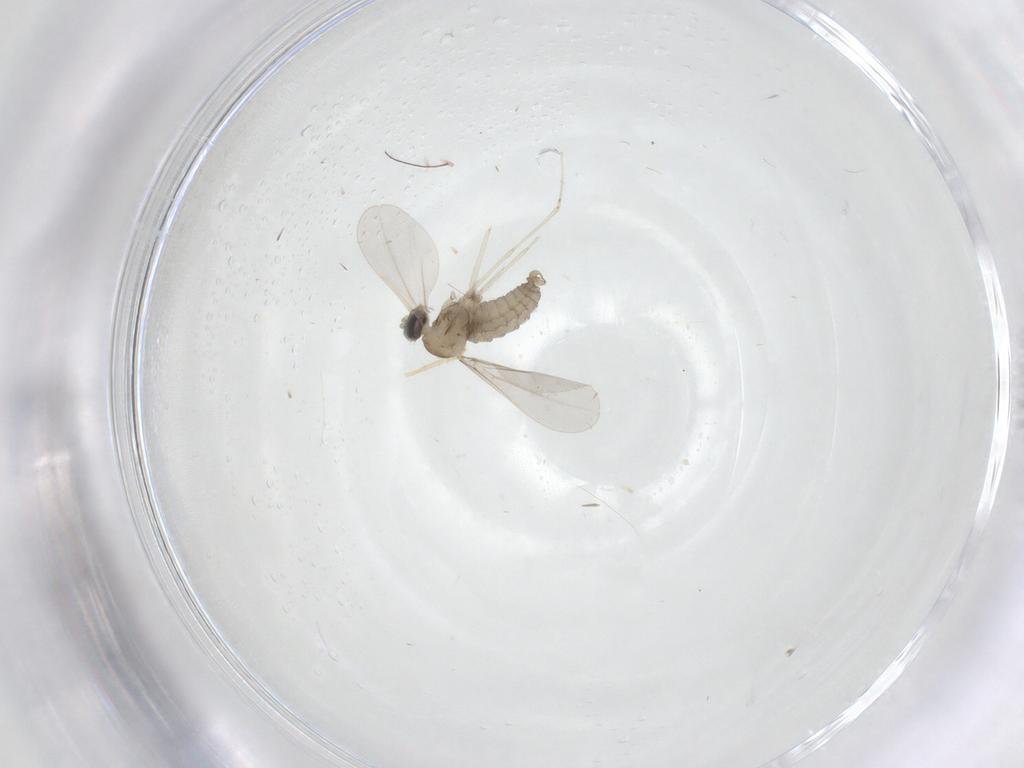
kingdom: Animalia
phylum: Arthropoda
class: Insecta
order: Diptera
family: Cecidomyiidae
